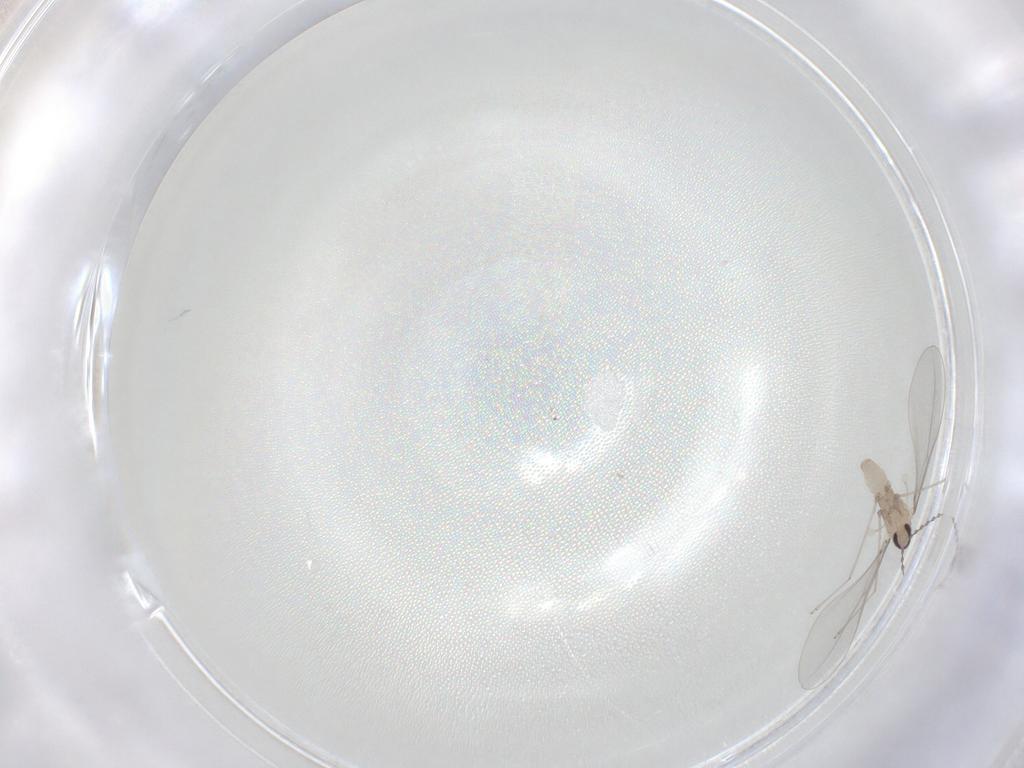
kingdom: Animalia
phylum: Arthropoda
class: Insecta
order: Diptera
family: Cecidomyiidae
